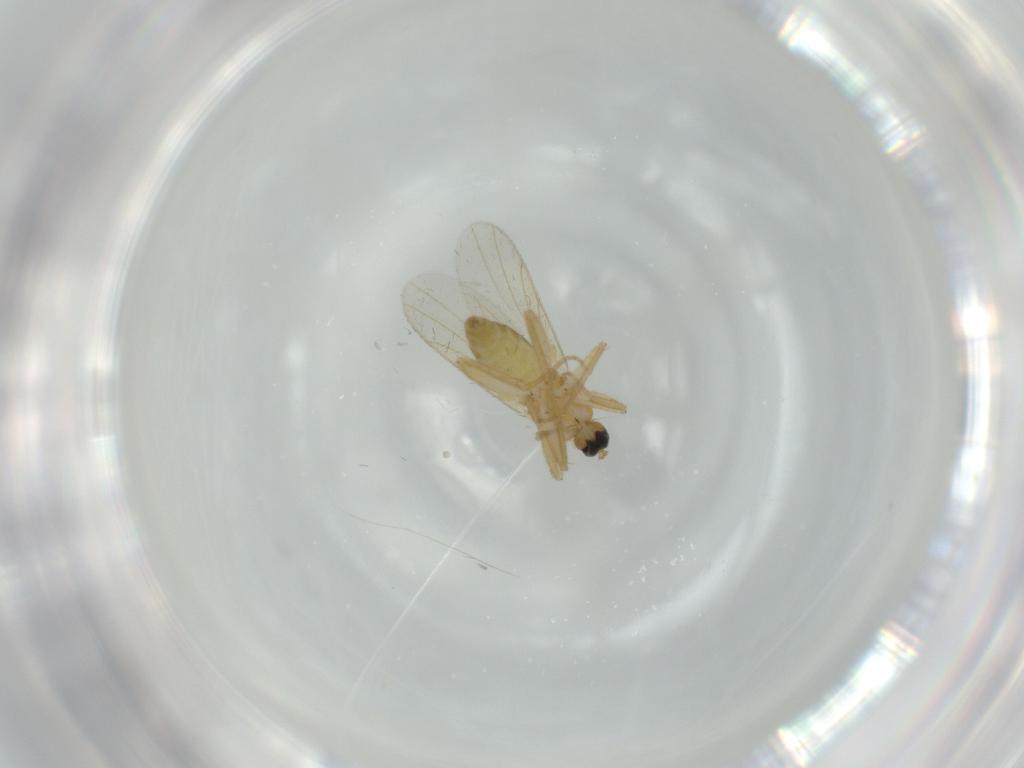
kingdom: Animalia
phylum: Arthropoda
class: Insecta
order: Diptera
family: Hybotidae
